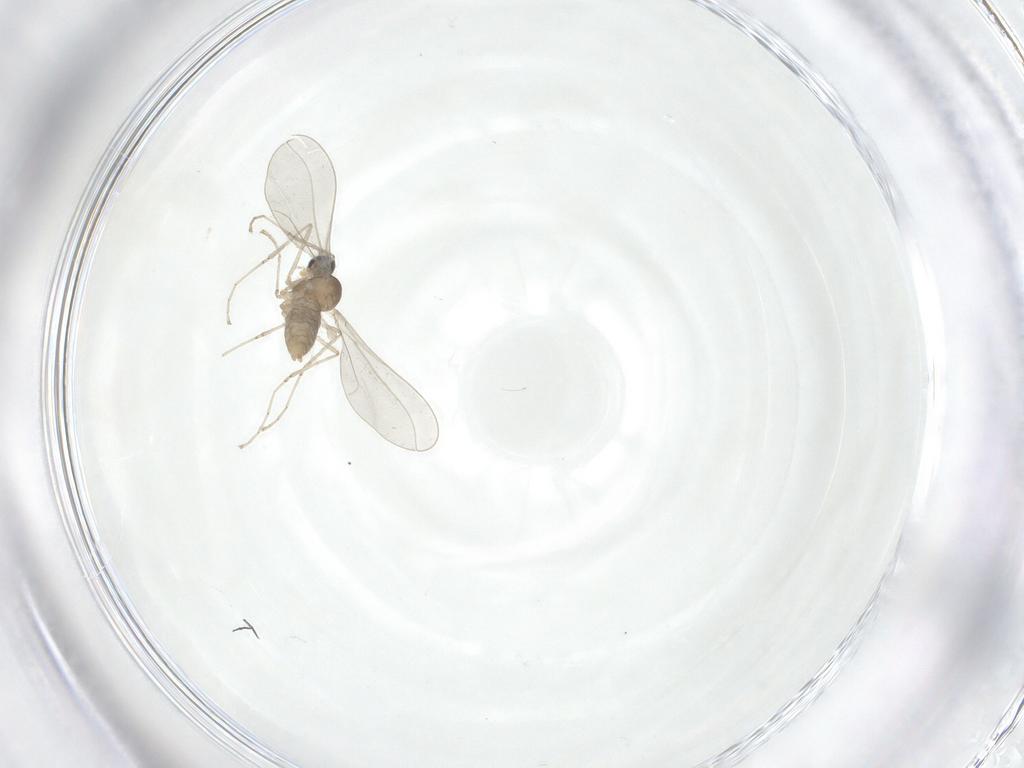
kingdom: Animalia
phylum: Arthropoda
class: Insecta
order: Diptera
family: Cecidomyiidae
